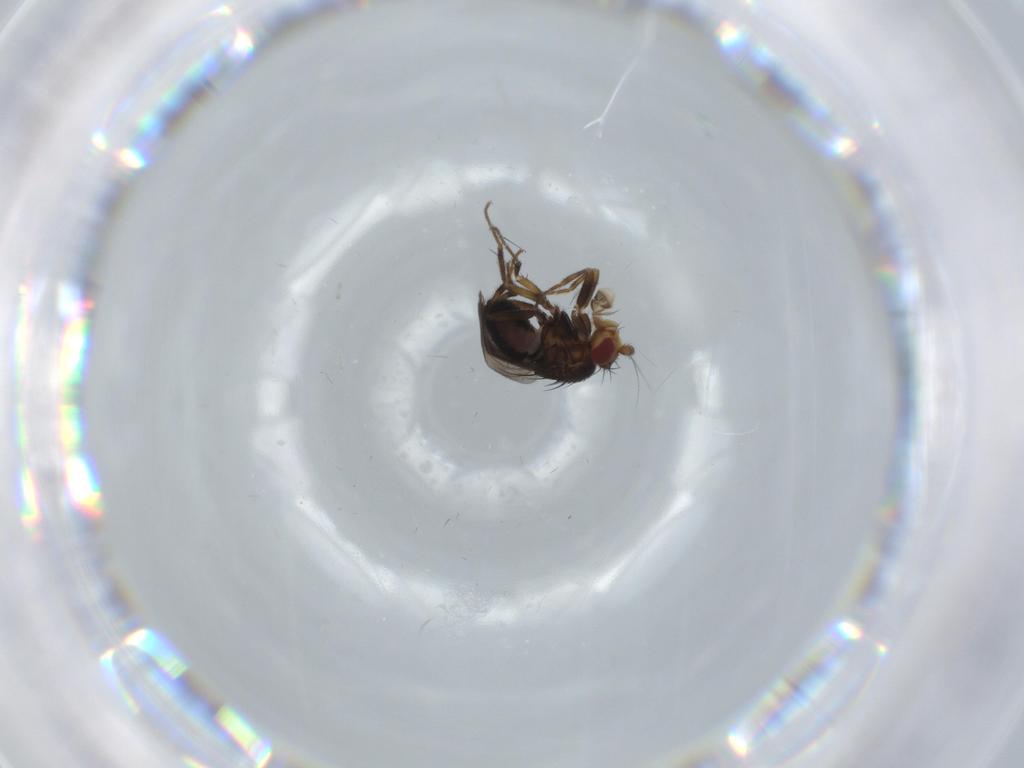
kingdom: Animalia
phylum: Arthropoda
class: Insecta
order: Diptera
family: Sphaeroceridae
